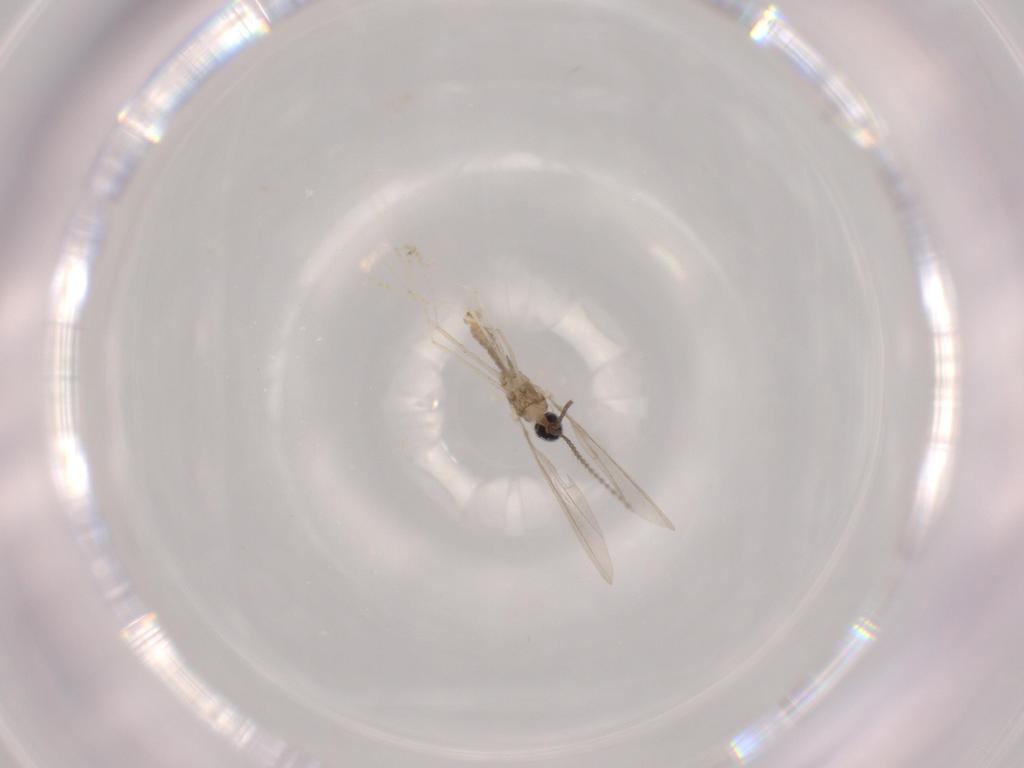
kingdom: Animalia
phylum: Arthropoda
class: Insecta
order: Diptera
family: Cecidomyiidae
